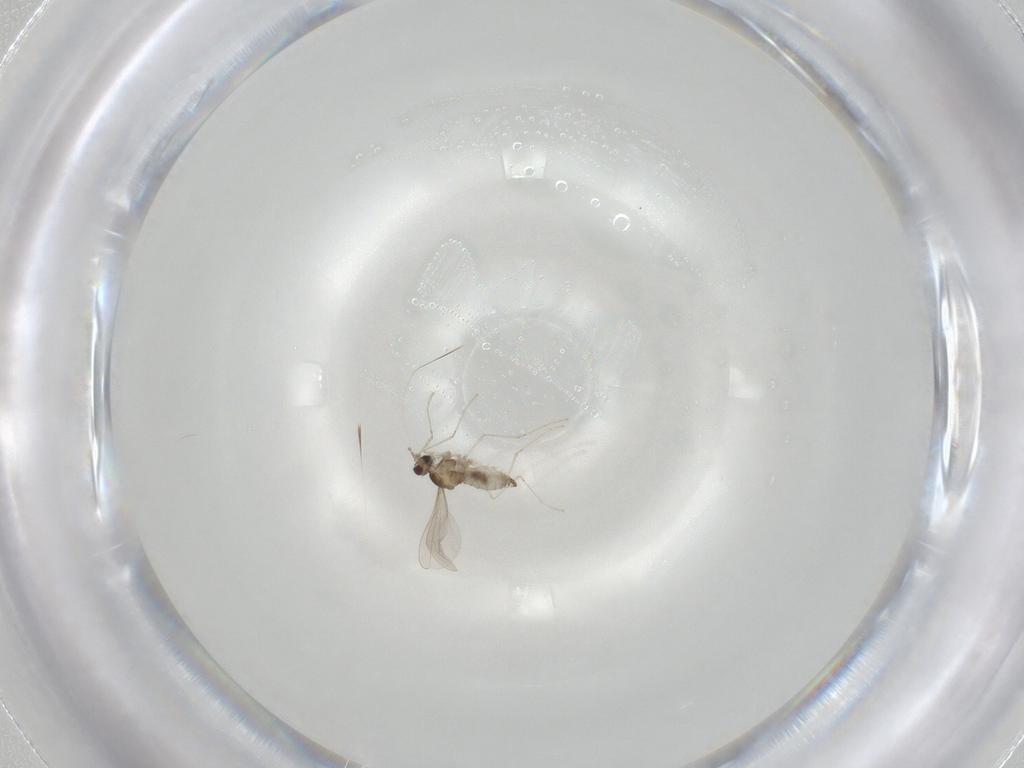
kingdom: Animalia
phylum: Arthropoda
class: Insecta
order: Diptera
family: Cecidomyiidae
